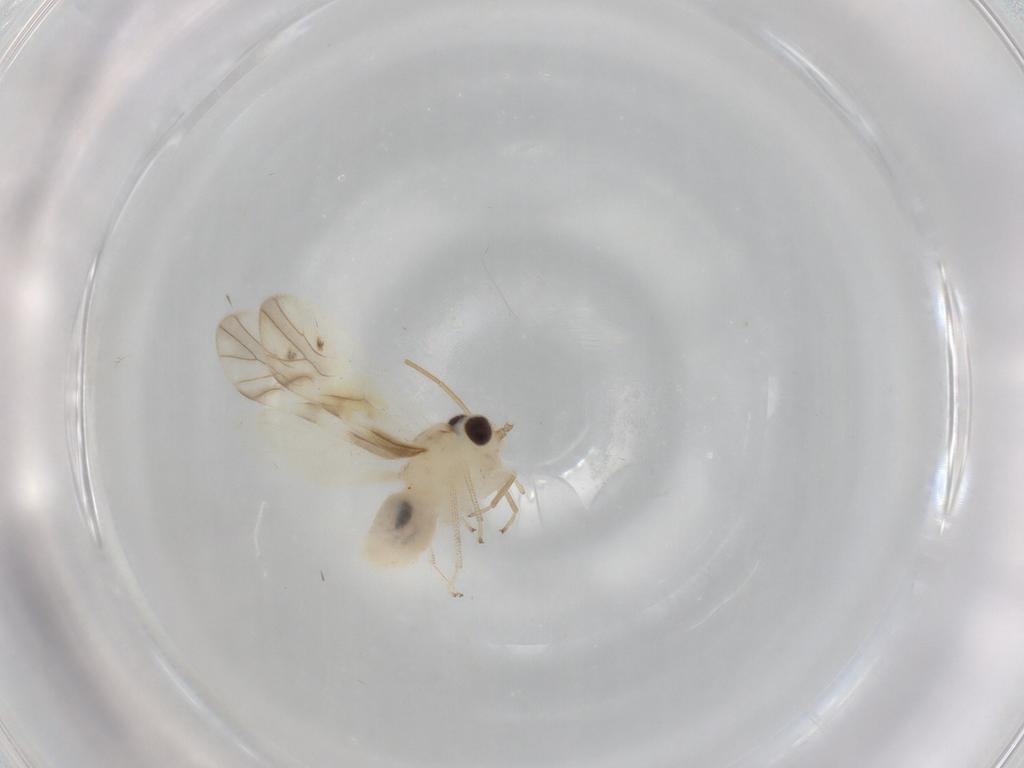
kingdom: Animalia
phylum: Arthropoda
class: Insecta
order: Psocodea
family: Caeciliusidae
